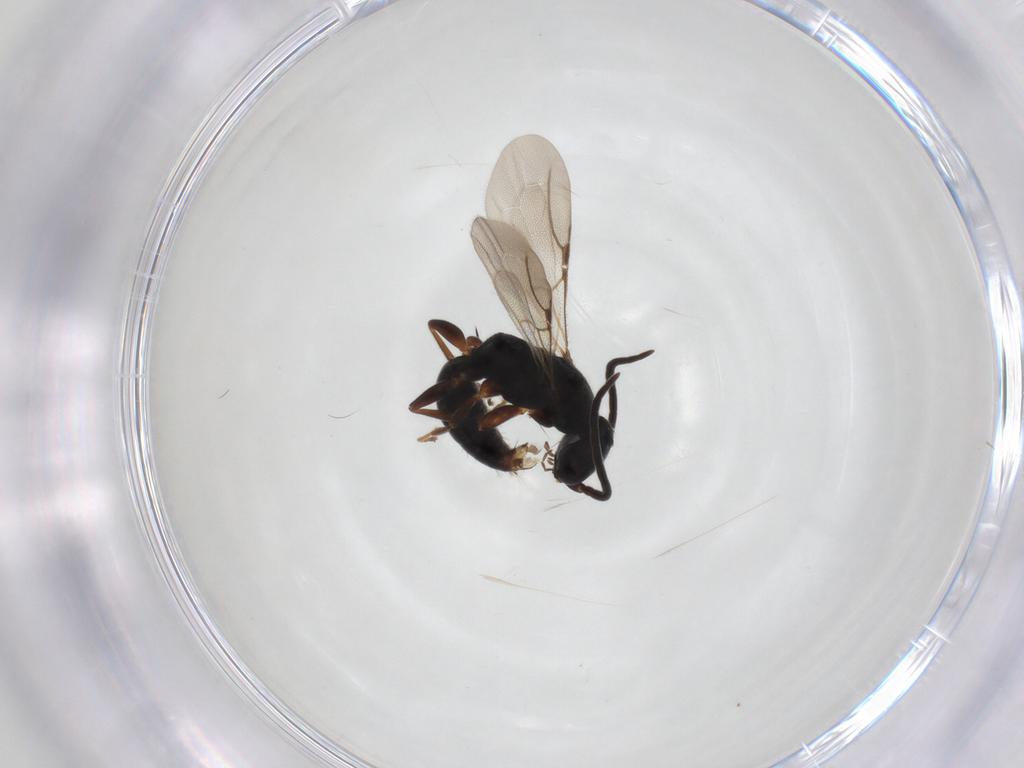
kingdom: Animalia
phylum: Arthropoda
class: Insecta
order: Hymenoptera
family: Bethylidae
